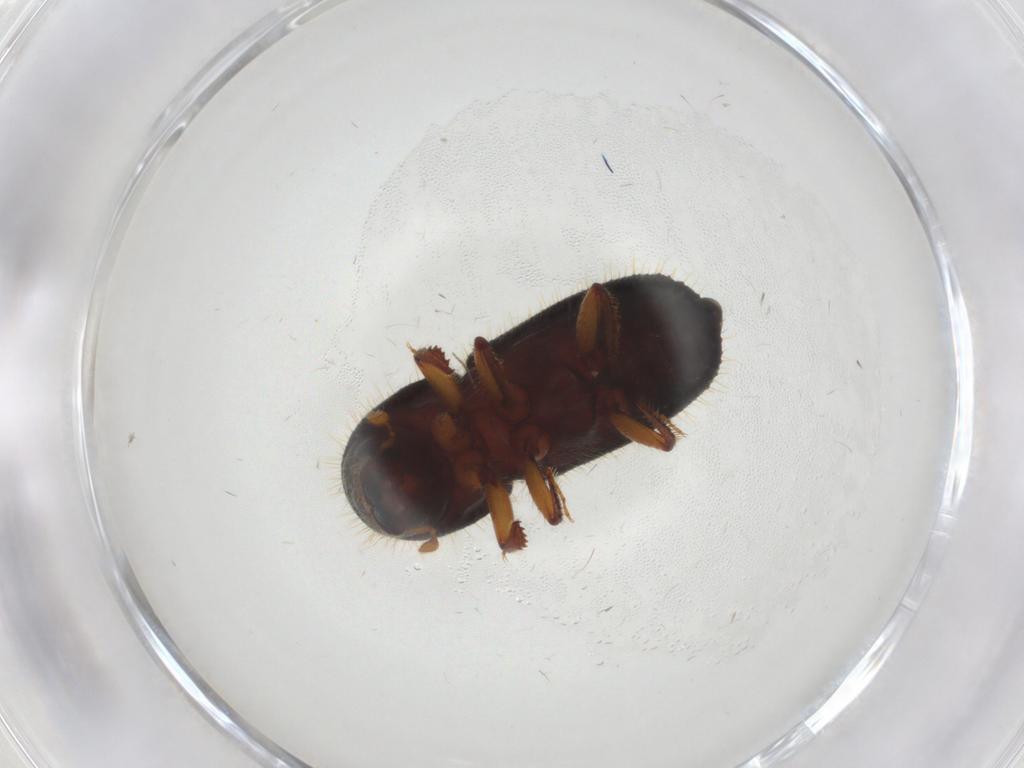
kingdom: Animalia
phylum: Arthropoda
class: Insecta
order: Coleoptera
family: Curculionidae
